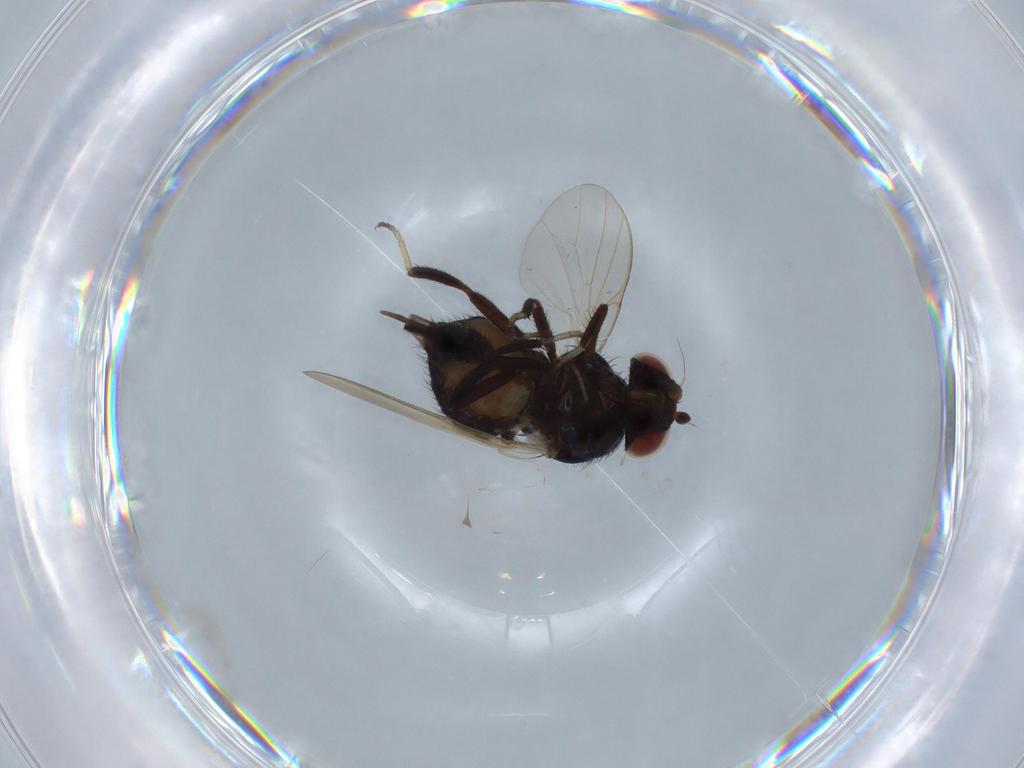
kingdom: Animalia
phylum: Arthropoda
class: Insecta
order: Diptera
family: Lonchaeidae
